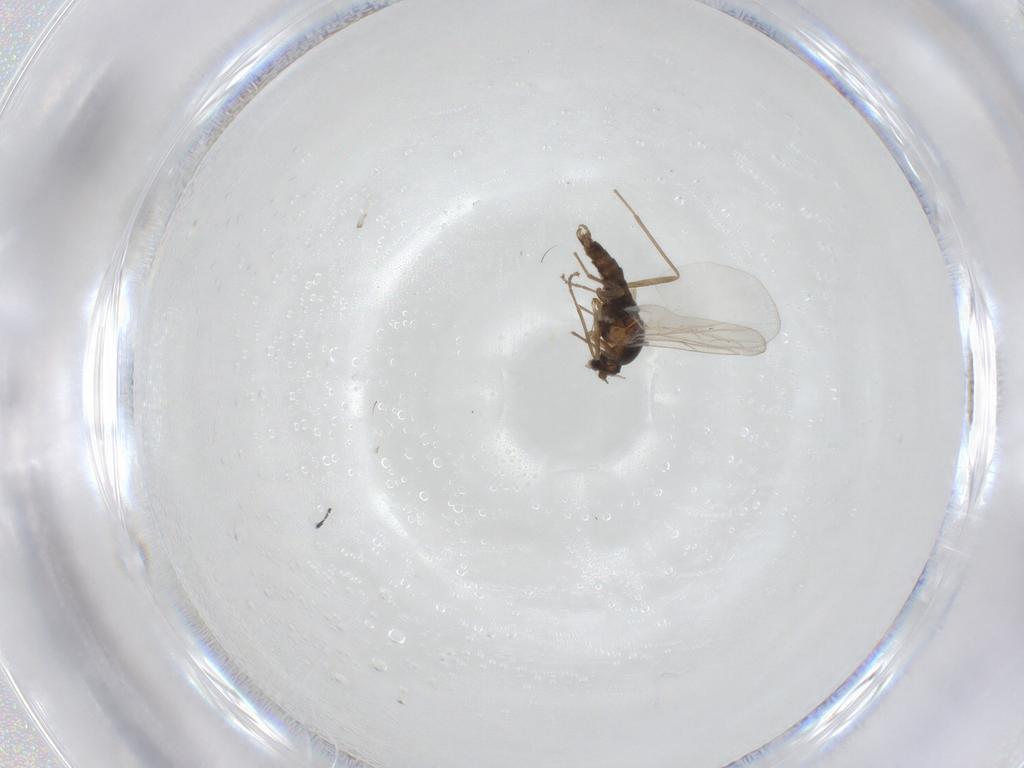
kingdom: Animalia
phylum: Arthropoda
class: Insecta
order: Diptera
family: Cecidomyiidae
